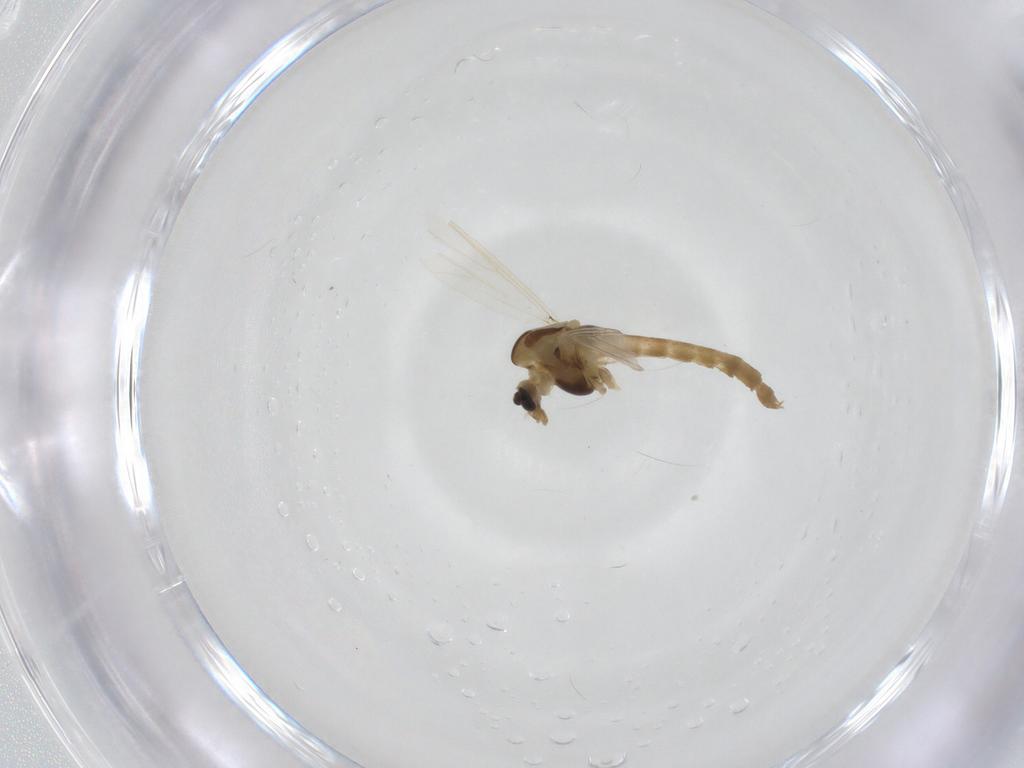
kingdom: Animalia
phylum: Arthropoda
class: Insecta
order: Diptera
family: Chironomidae
